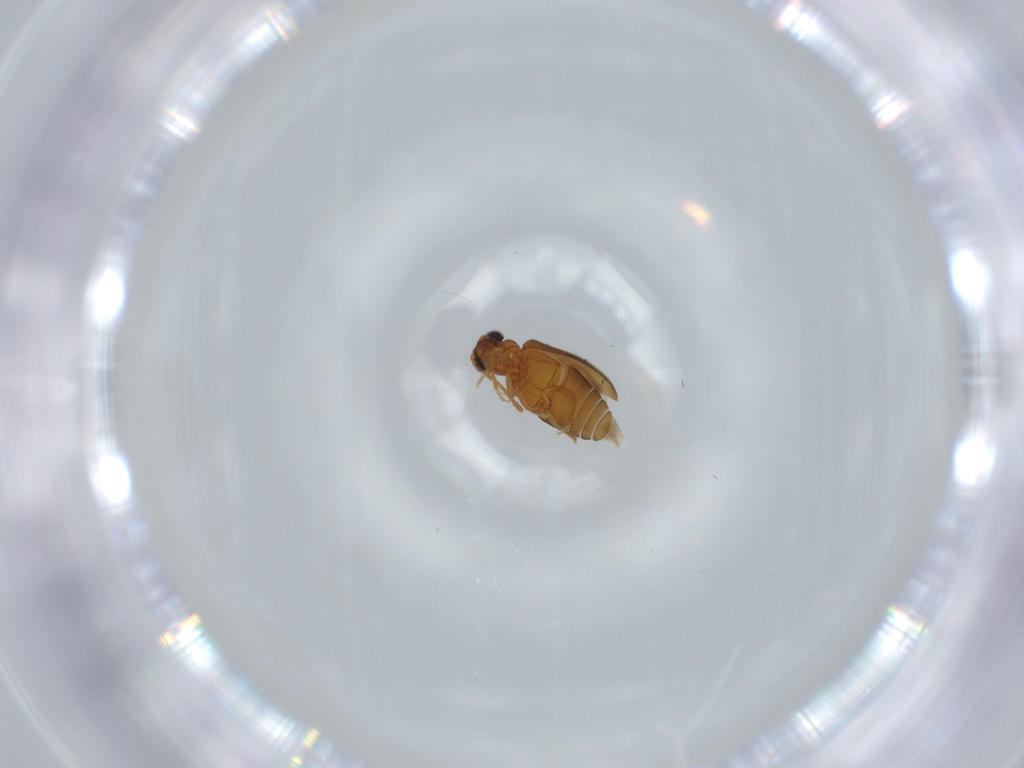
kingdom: Animalia
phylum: Arthropoda
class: Insecta
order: Coleoptera
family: Aderidae
